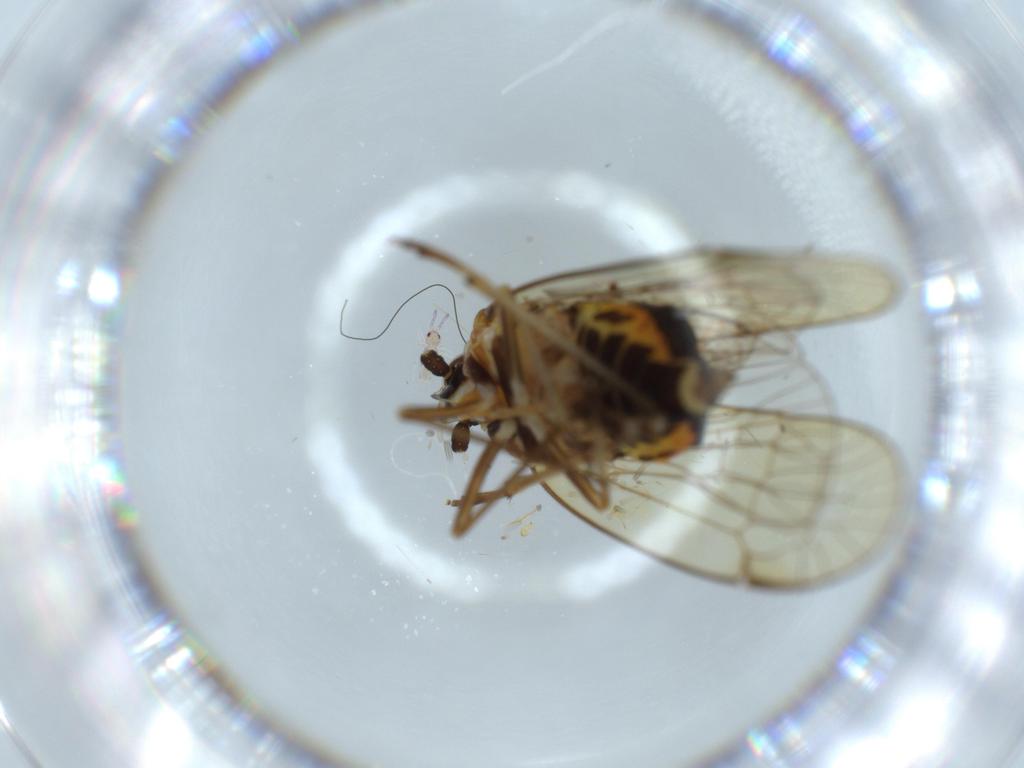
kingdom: Animalia
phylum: Arthropoda
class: Insecta
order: Hemiptera
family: Kinnaridae
